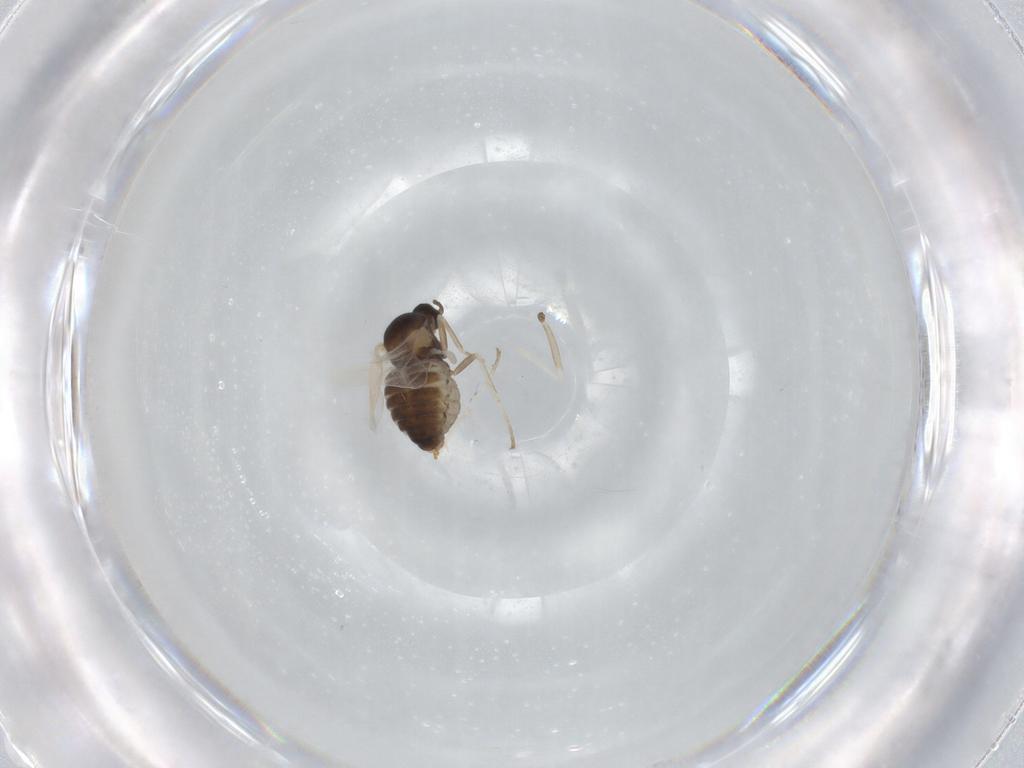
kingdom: Animalia
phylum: Arthropoda
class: Insecta
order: Diptera
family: Cecidomyiidae
